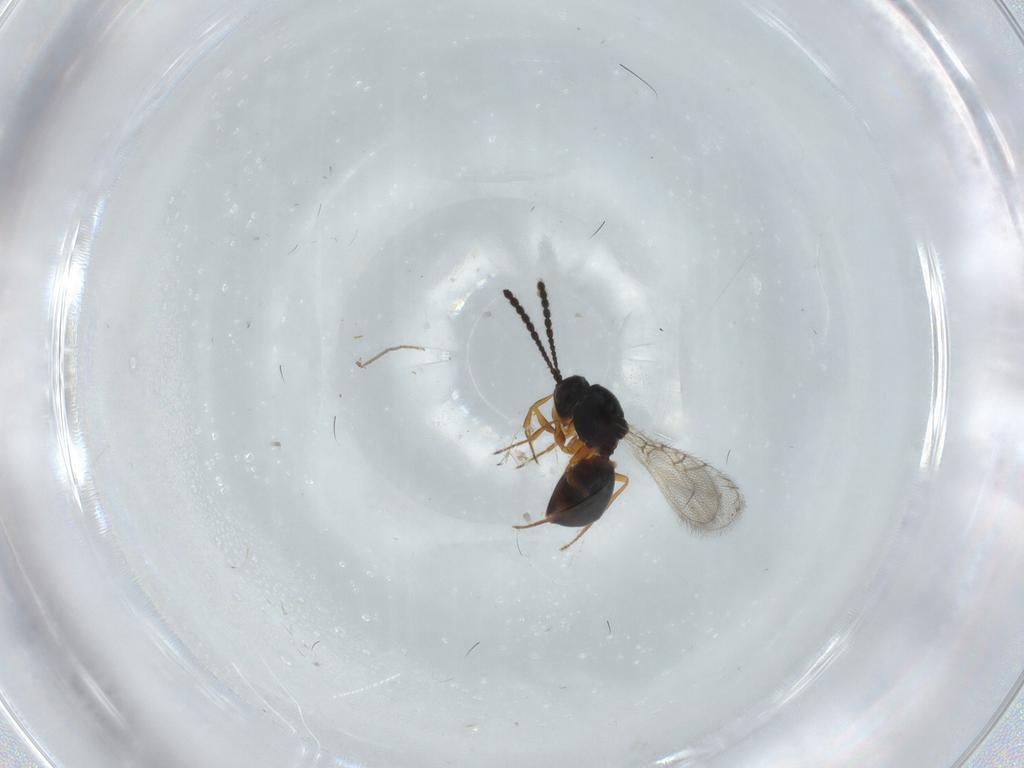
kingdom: Animalia
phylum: Arthropoda
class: Insecta
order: Hymenoptera
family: Figitidae
